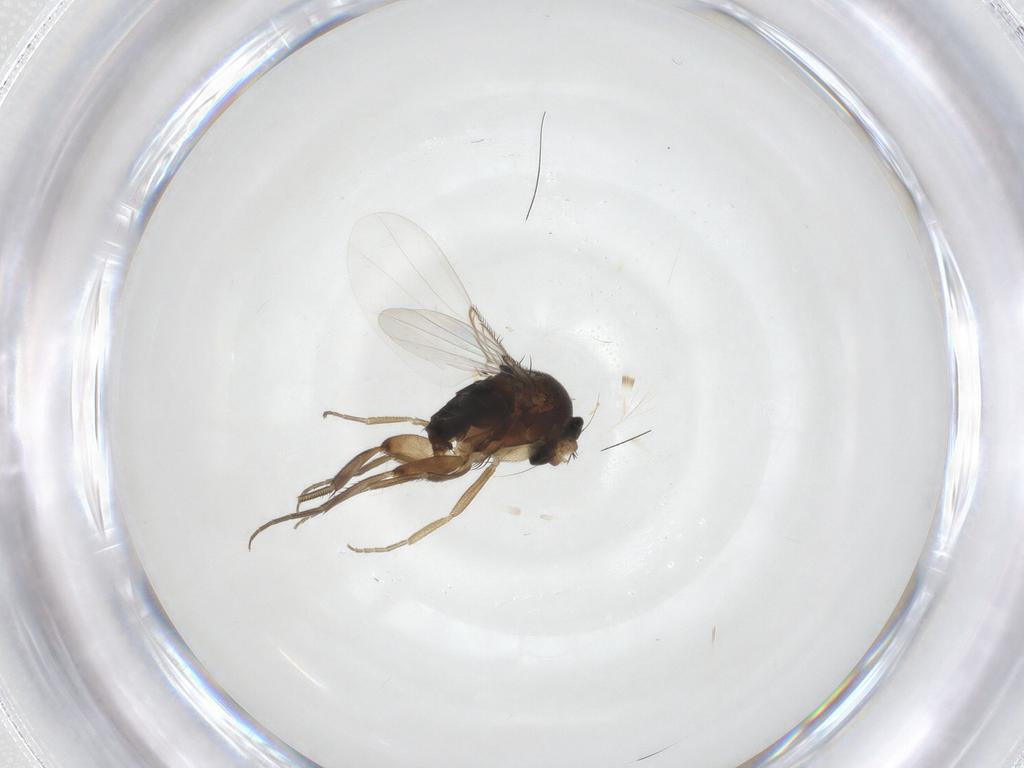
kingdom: Animalia
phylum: Arthropoda
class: Insecta
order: Diptera
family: Phoridae
